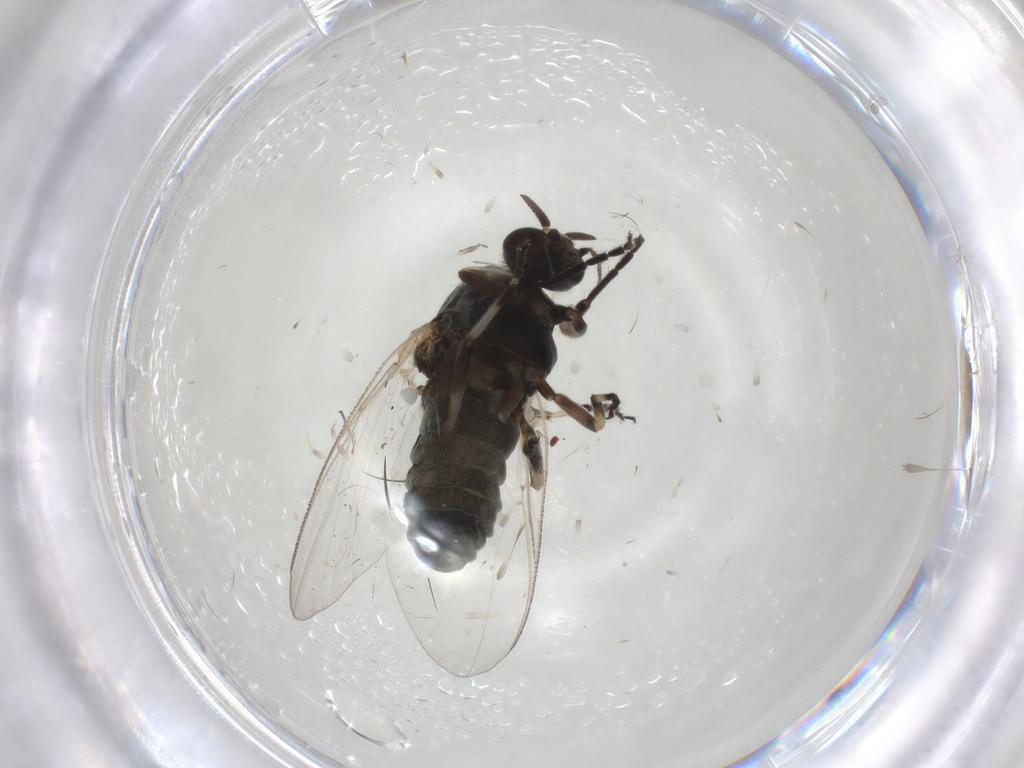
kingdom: Animalia
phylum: Arthropoda
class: Insecta
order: Diptera
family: Simuliidae
